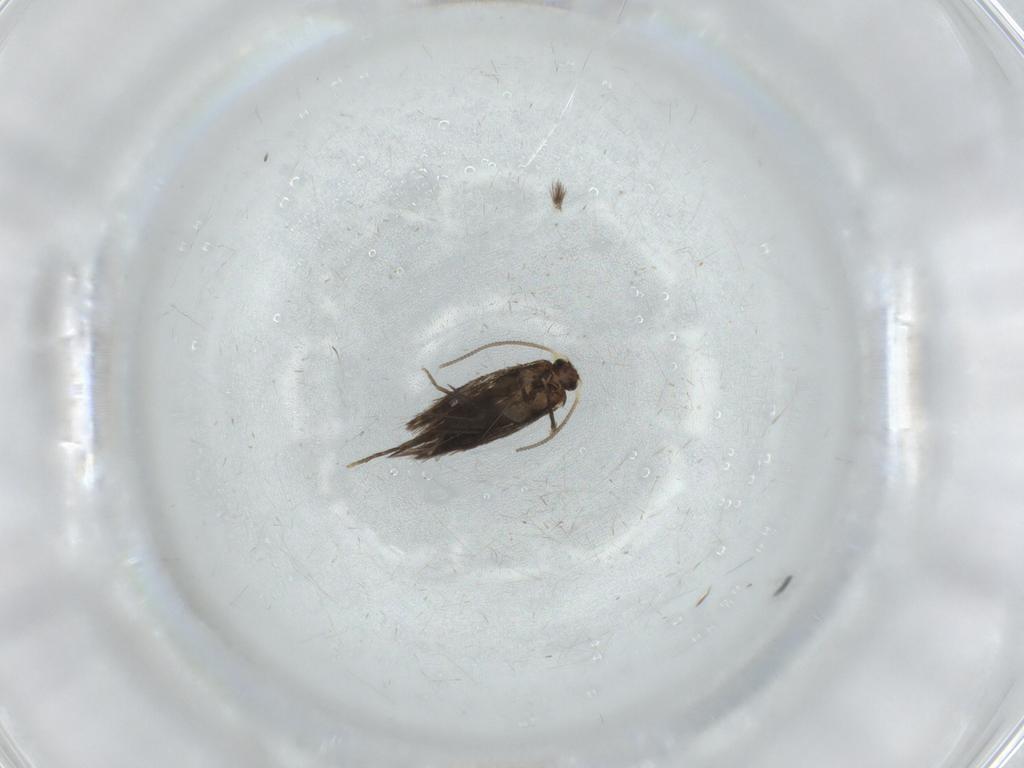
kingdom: Animalia
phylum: Arthropoda
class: Insecta
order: Lepidoptera
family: Nepticulidae
